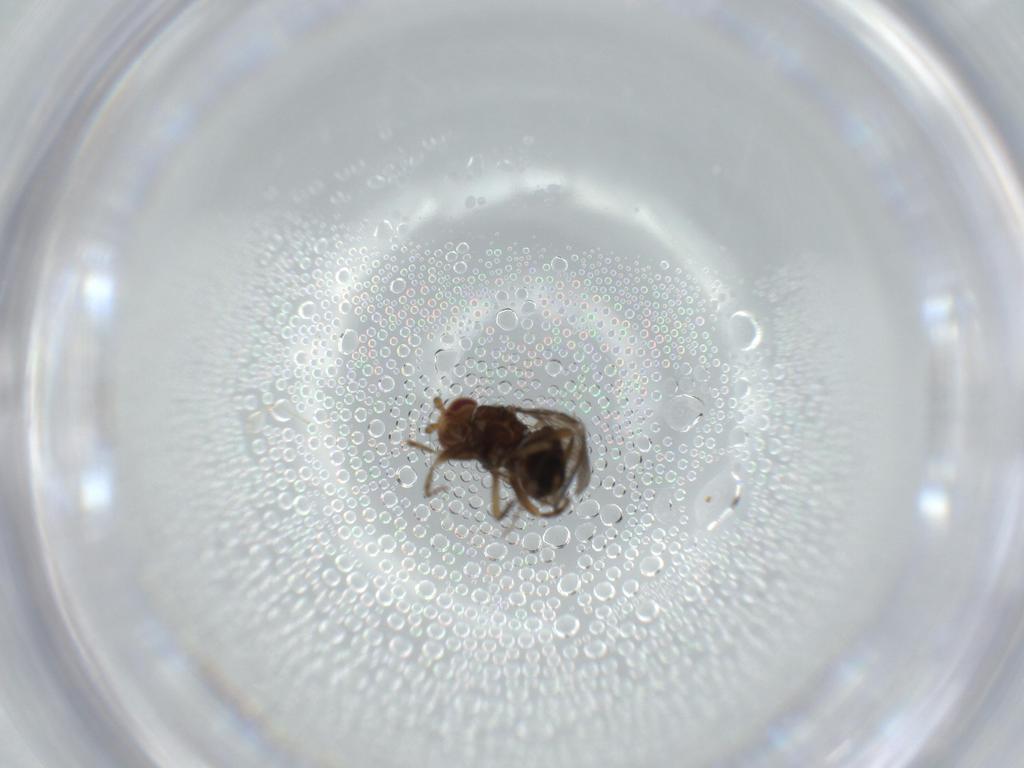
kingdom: Animalia
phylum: Arthropoda
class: Insecta
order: Diptera
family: Sphaeroceridae
